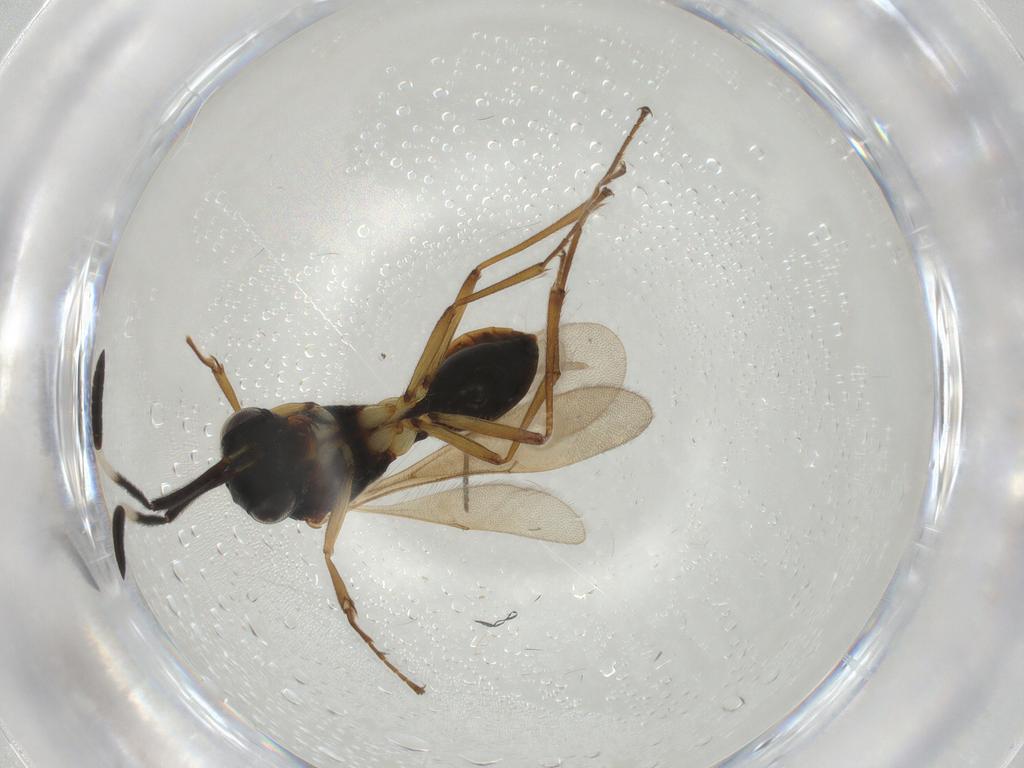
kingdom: Animalia
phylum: Arthropoda
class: Insecta
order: Hymenoptera
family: Scelionidae
